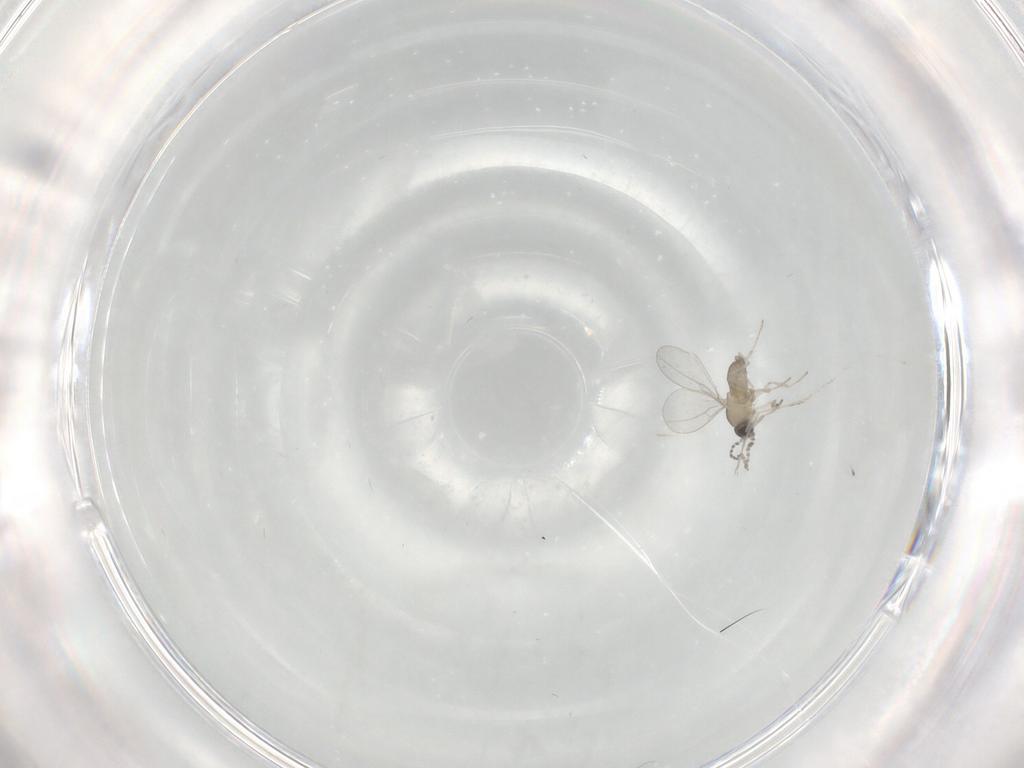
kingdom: Animalia
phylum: Arthropoda
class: Insecta
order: Diptera
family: Cecidomyiidae
